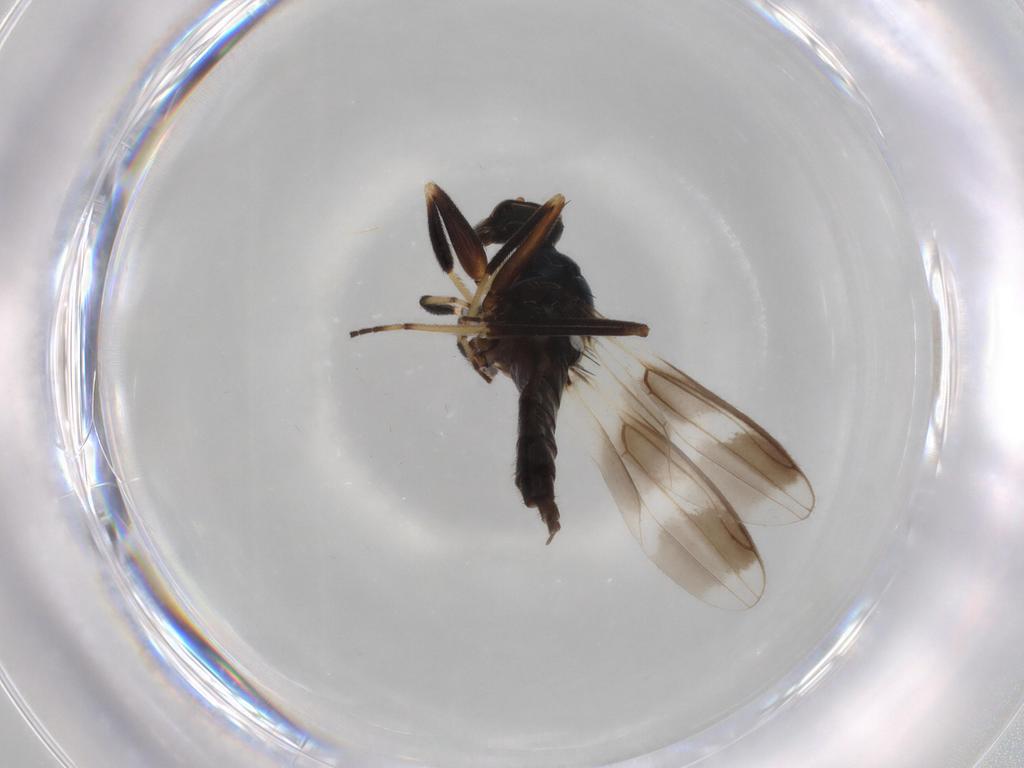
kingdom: Animalia
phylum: Arthropoda
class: Insecta
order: Diptera
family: Hybotidae
